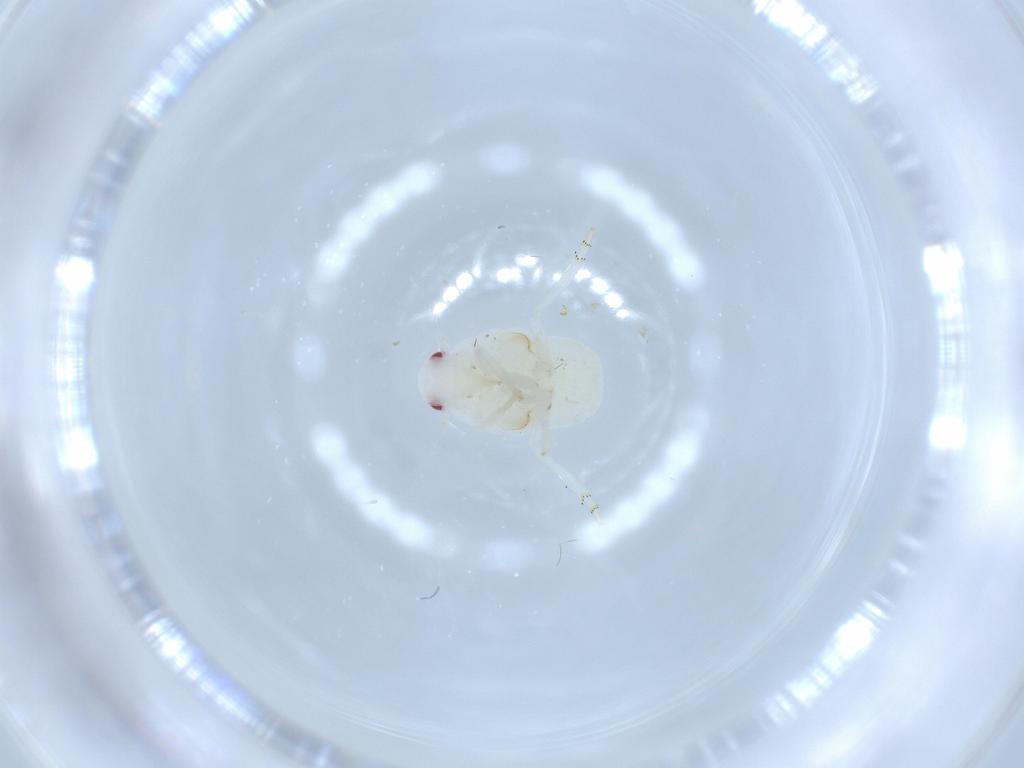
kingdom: Animalia
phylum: Arthropoda
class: Insecta
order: Hemiptera
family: Flatidae
